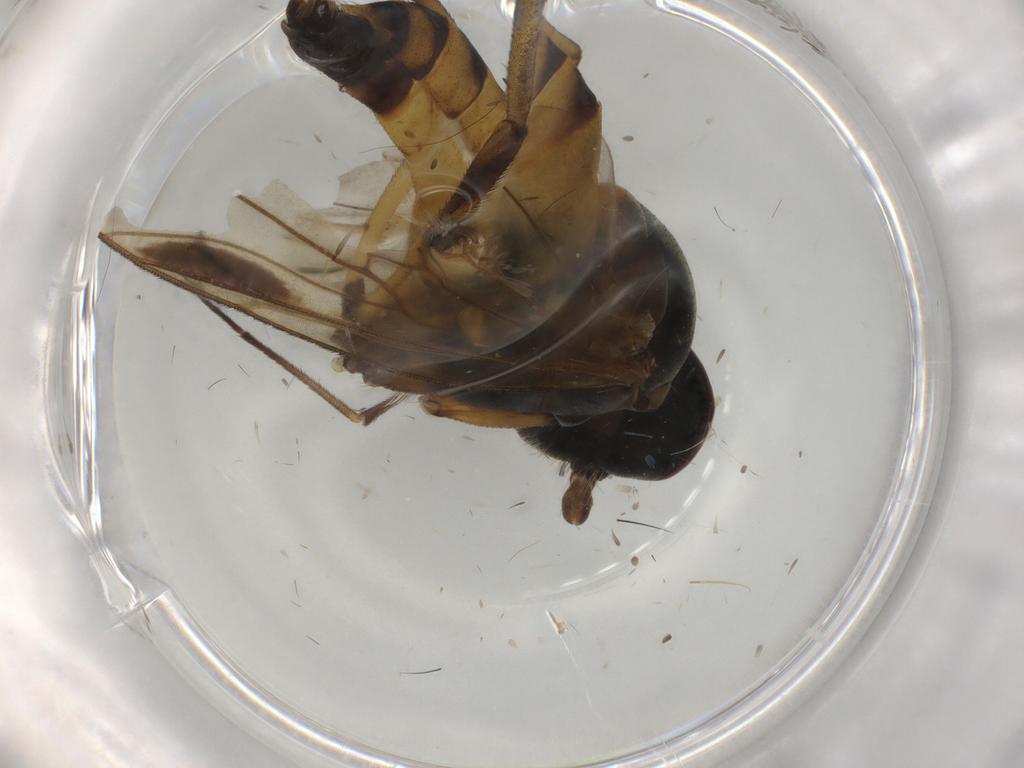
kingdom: Animalia
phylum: Arthropoda
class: Insecta
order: Diptera
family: Rhagionidae
